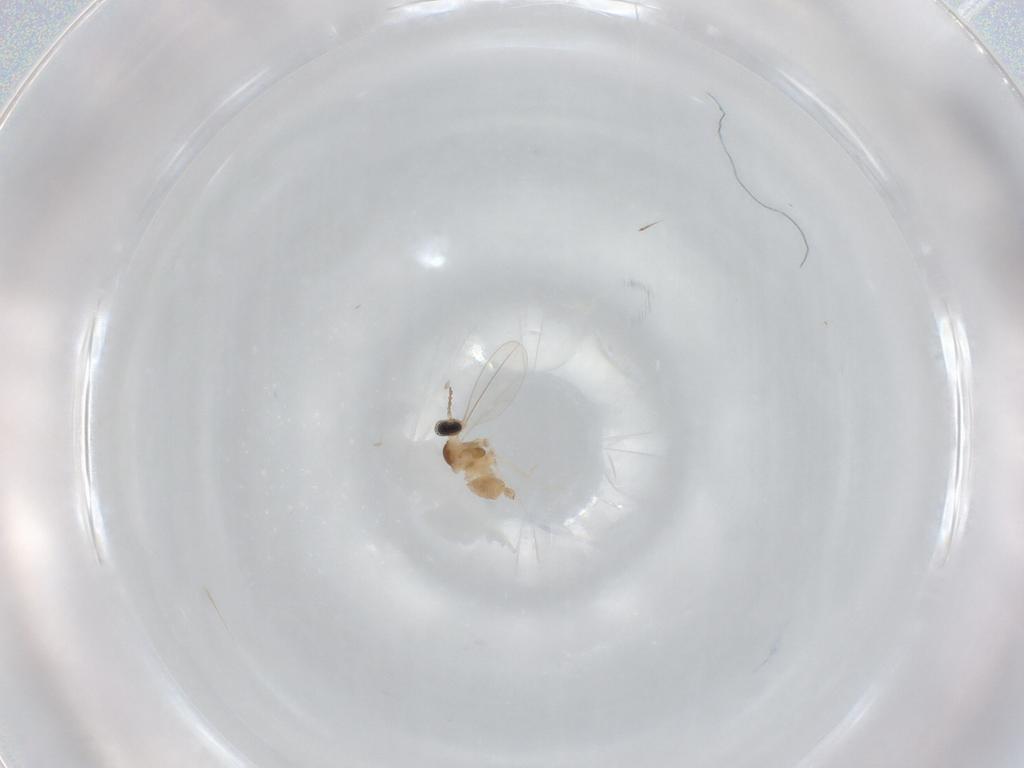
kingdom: Animalia
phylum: Arthropoda
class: Insecta
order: Diptera
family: Cecidomyiidae
